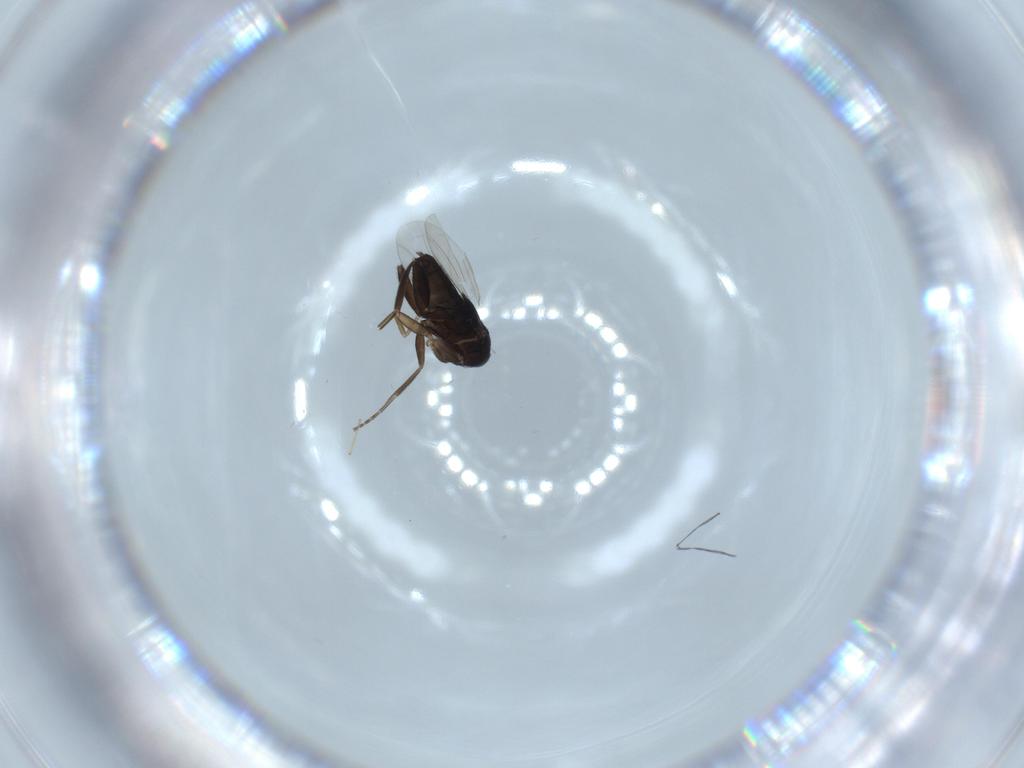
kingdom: Animalia
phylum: Arthropoda
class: Insecta
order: Diptera
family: Phoridae
